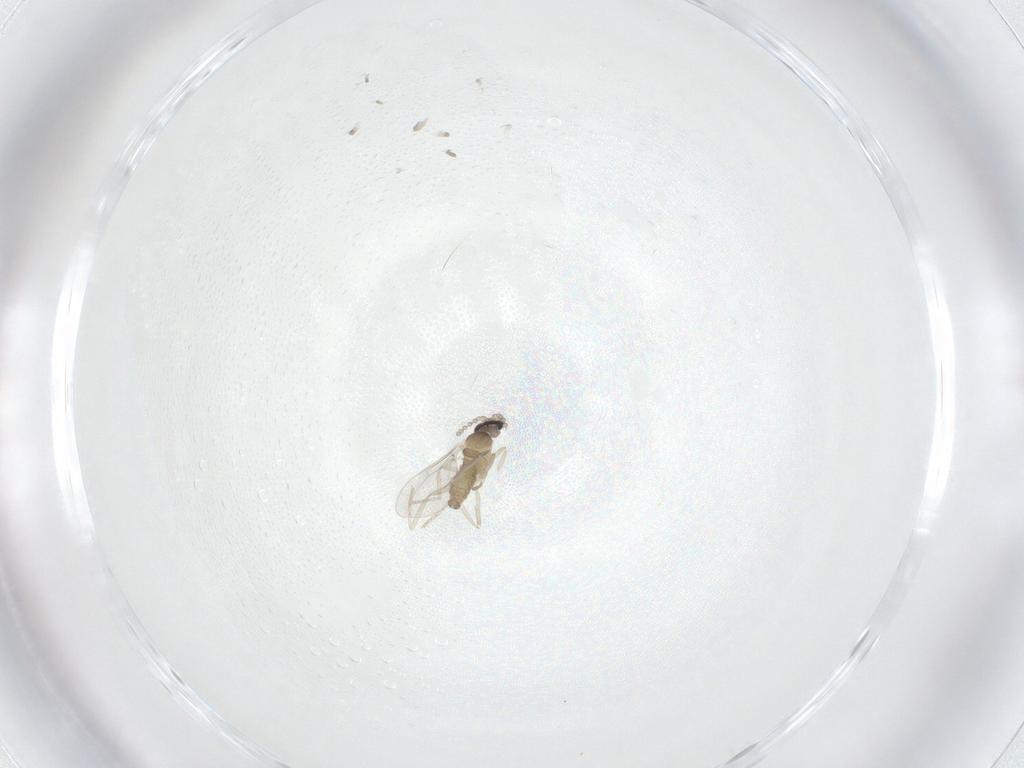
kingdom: Animalia
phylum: Arthropoda
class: Insecta
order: Diptera
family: Cecidomyiidae
